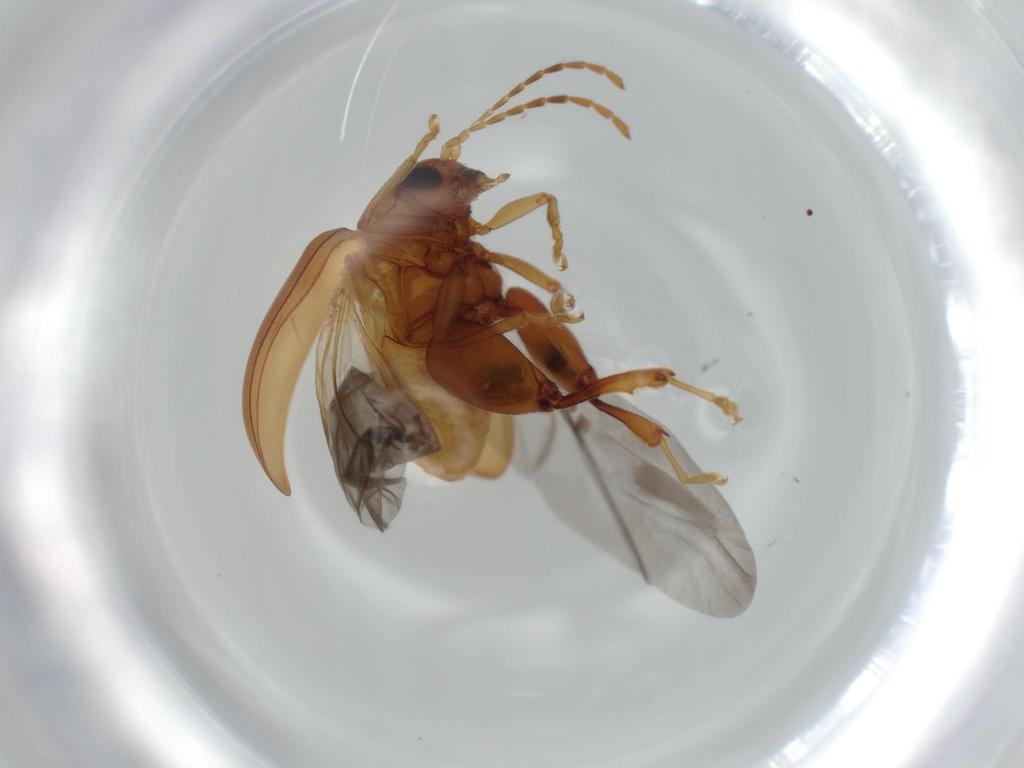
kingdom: Animalia
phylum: Arthropoda
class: Insecta
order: Coleoptera
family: Chrysomelidae
